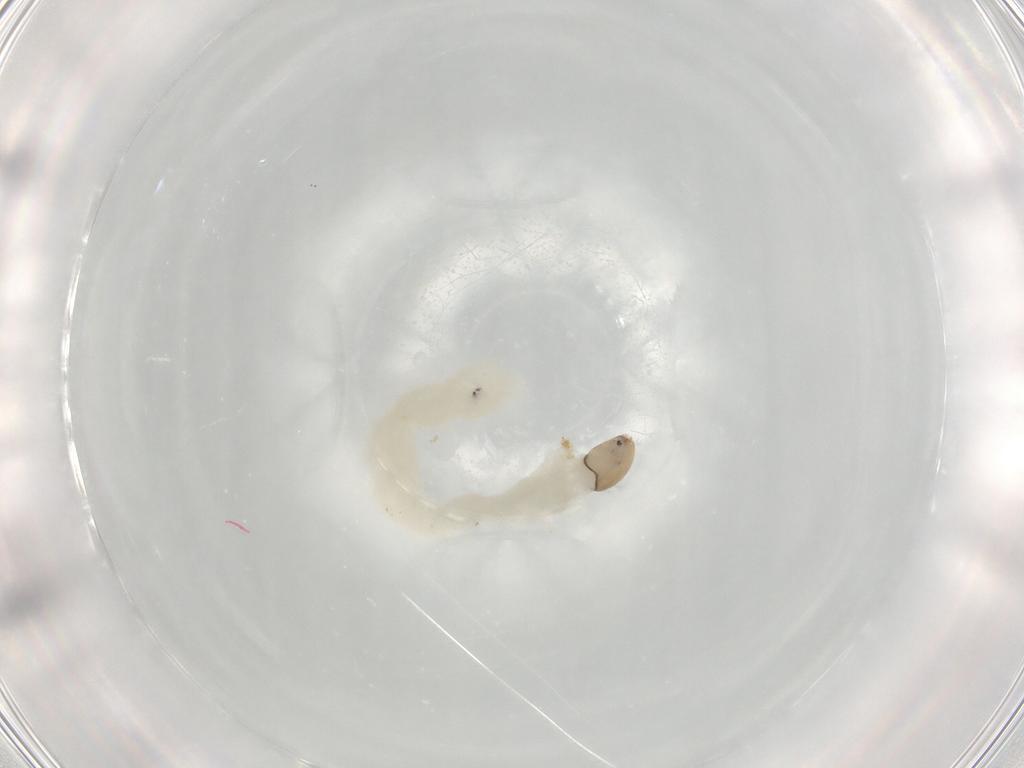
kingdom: Animalia
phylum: Arthropoda
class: Insecta
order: Diptera
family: Chironomidae
